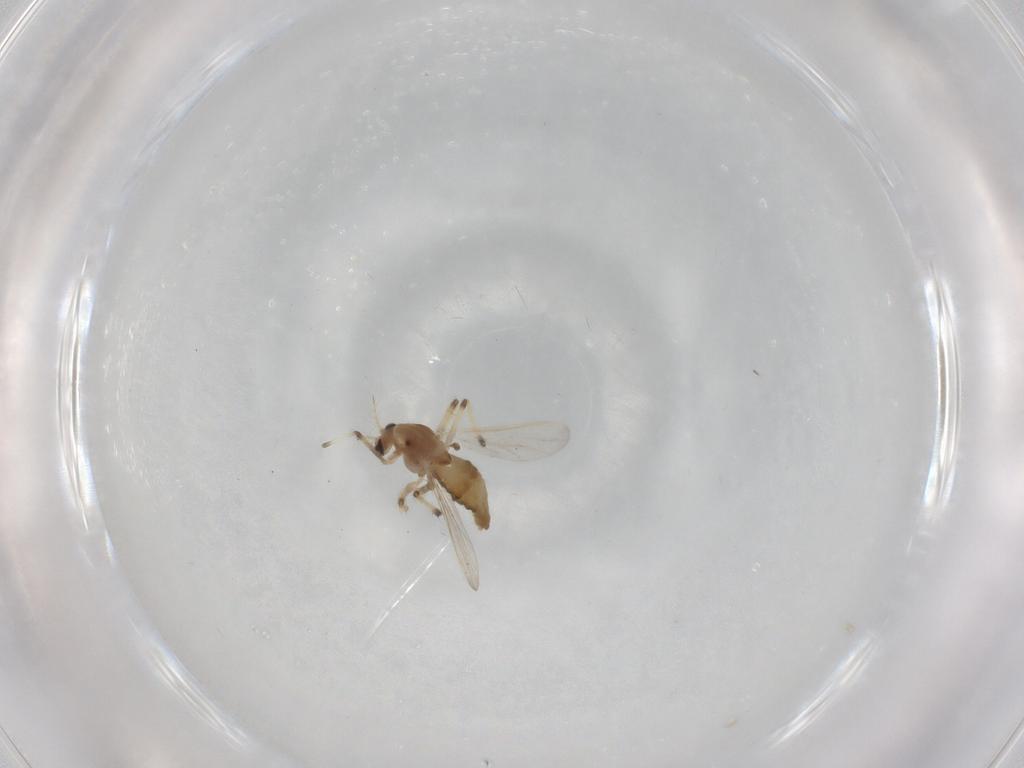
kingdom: Animalia
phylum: Arthropoda
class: Insecta
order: Diptera
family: Chironomidae
